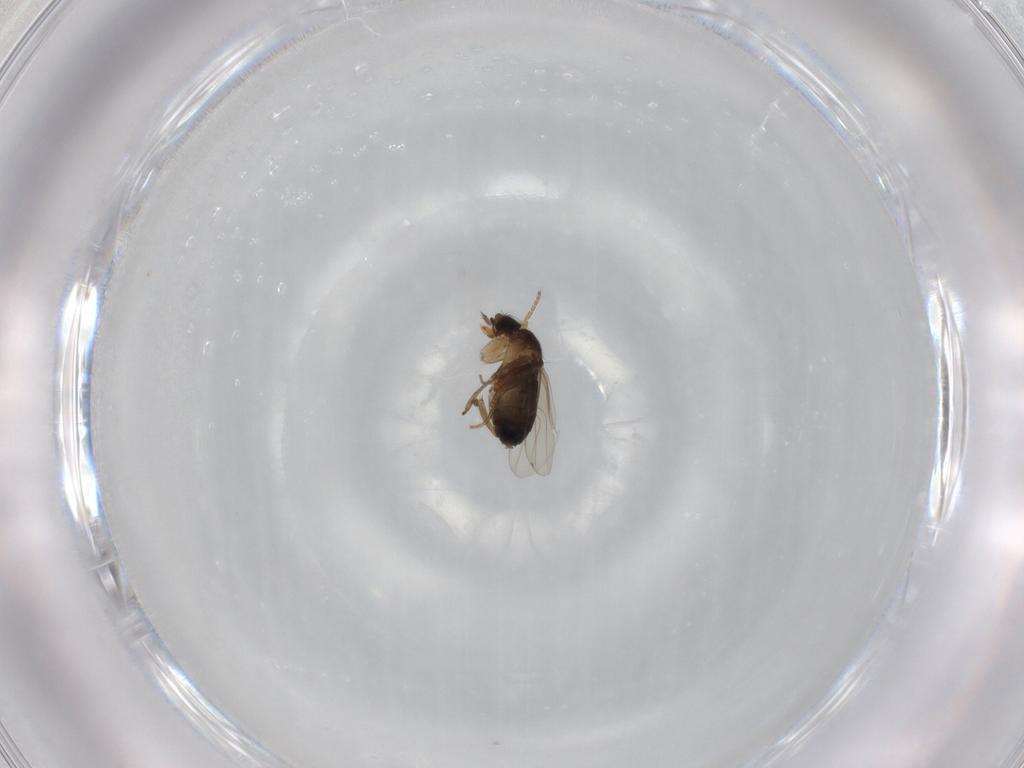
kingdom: Animalia
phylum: Arthropoda
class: Insecta
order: Diptera
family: Phoridae
